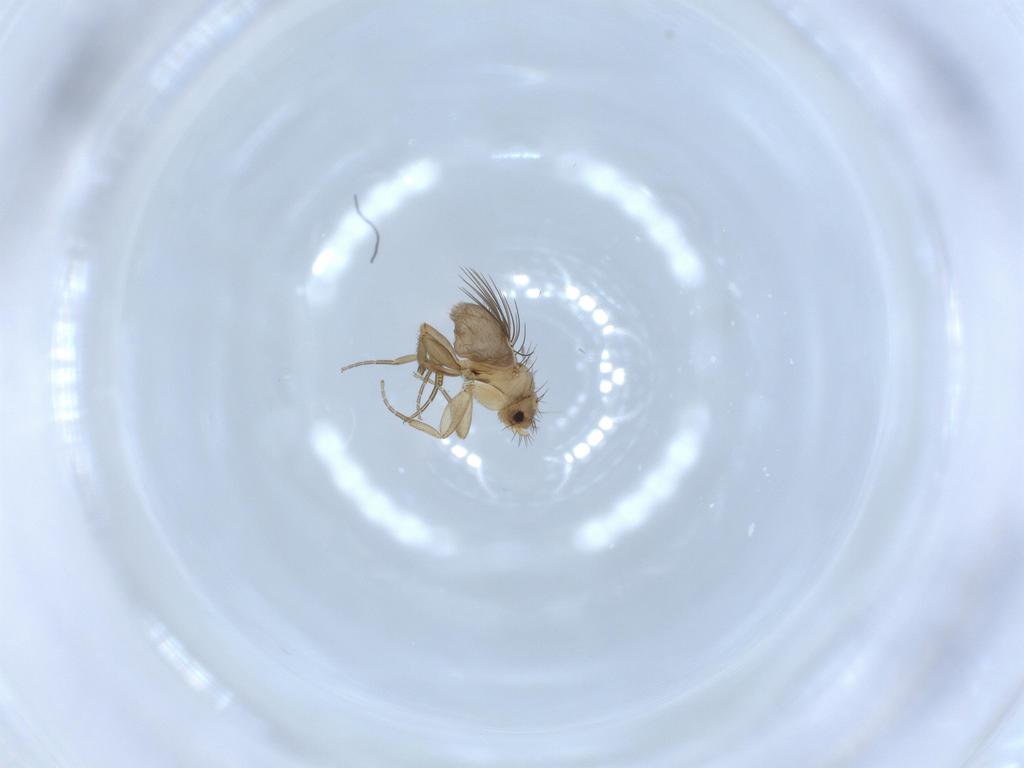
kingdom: Animalia
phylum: Arthropoda
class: Insecta
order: Diptera
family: Phoridae
